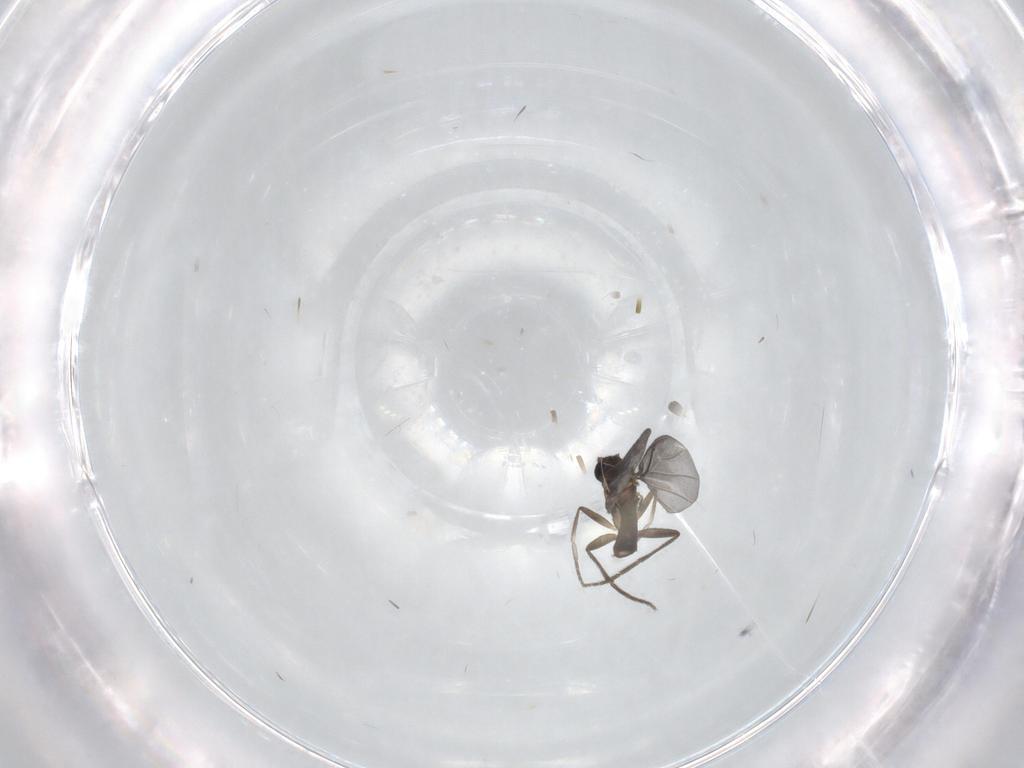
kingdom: Animalia
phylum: Arthropoda
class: Insecta
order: Diptera
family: Phoridae
